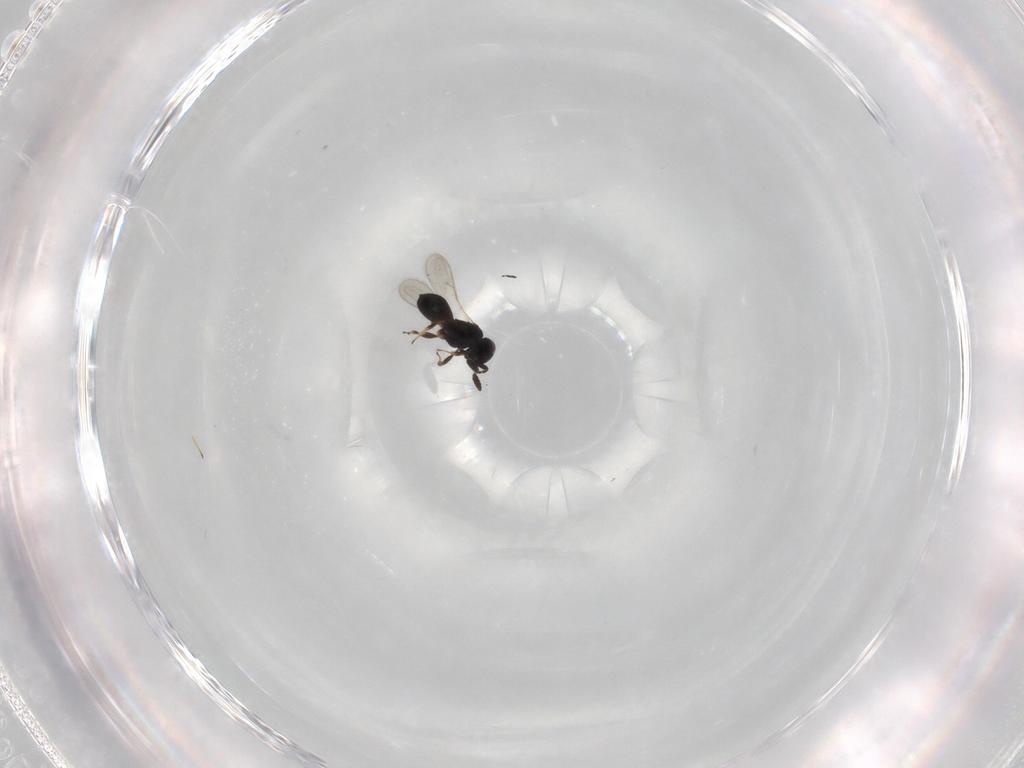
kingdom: Animalia
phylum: Arthropoda
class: Insecta
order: Hymenoptera
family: Scelionidae
